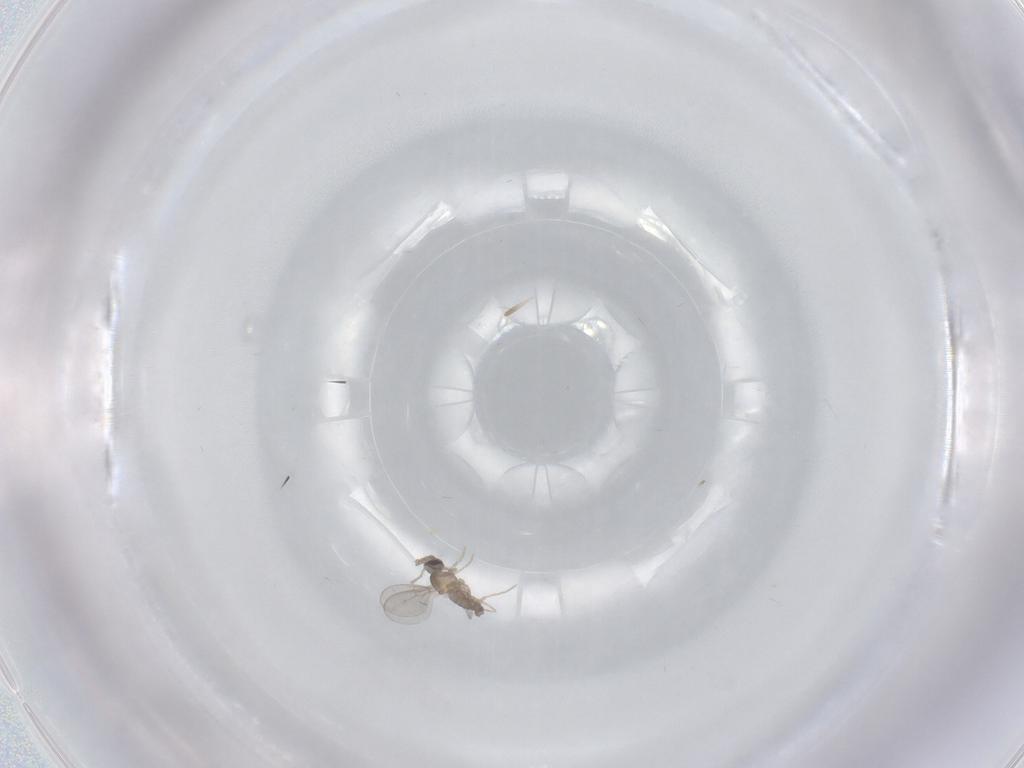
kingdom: Animalia
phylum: Arthropoda
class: Insecta
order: Diptera
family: Cecidomyiidae
